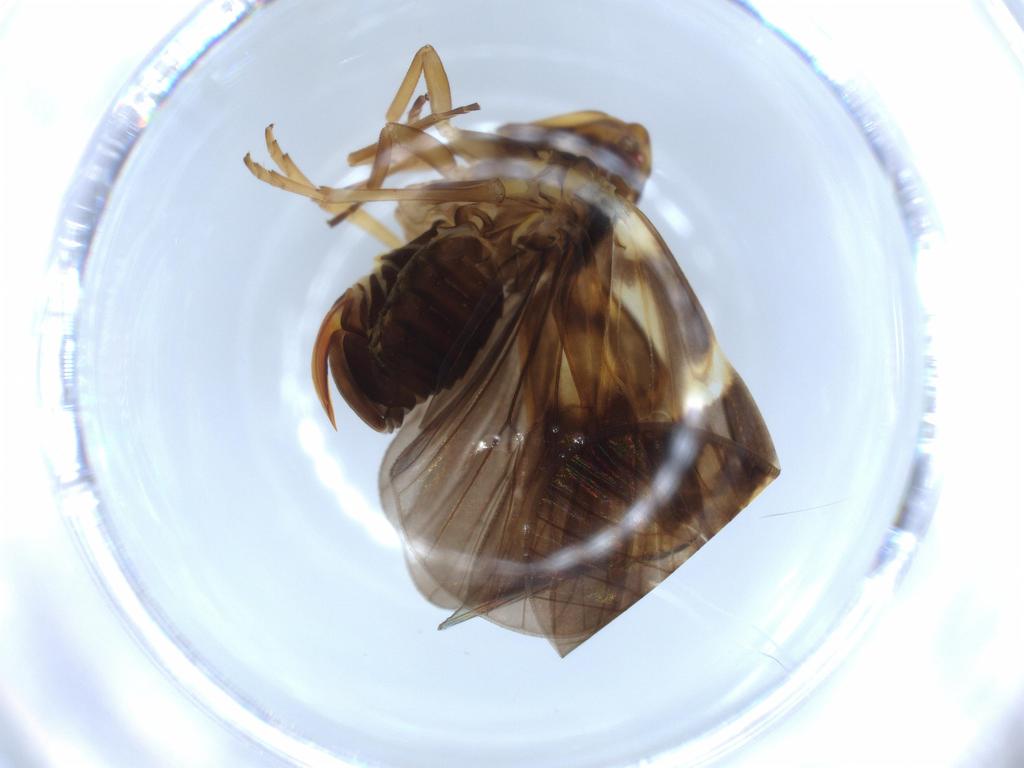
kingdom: Animalia
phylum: Arthropoda
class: Insecta
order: Hemiptera
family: Cixiidae
